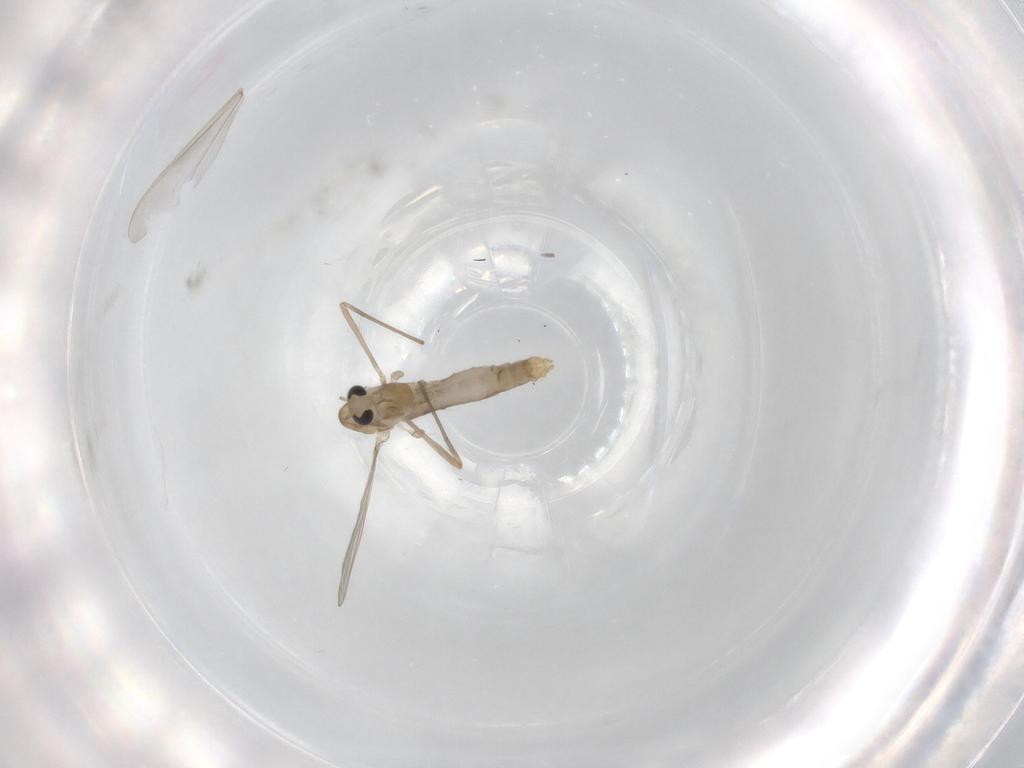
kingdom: Animalia
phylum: Arthropoda
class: Insecta
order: Diptera
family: Chironomidae
